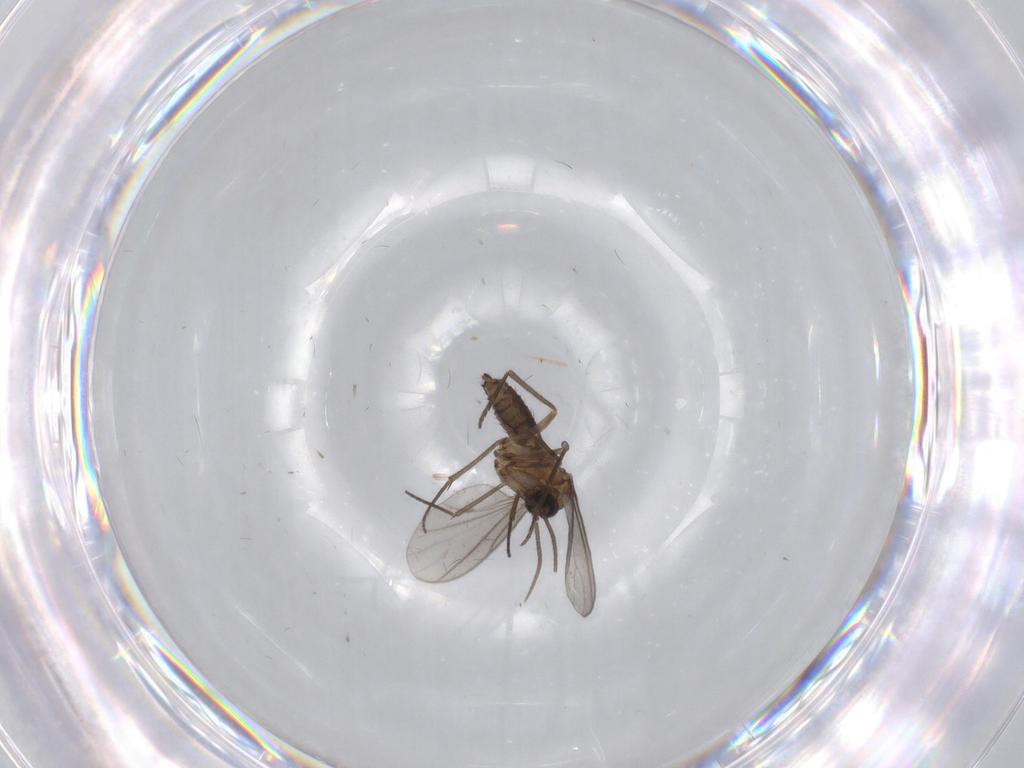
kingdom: Animalia
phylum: Arthropoda
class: Insecta
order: Diptera
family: Sciaridae
